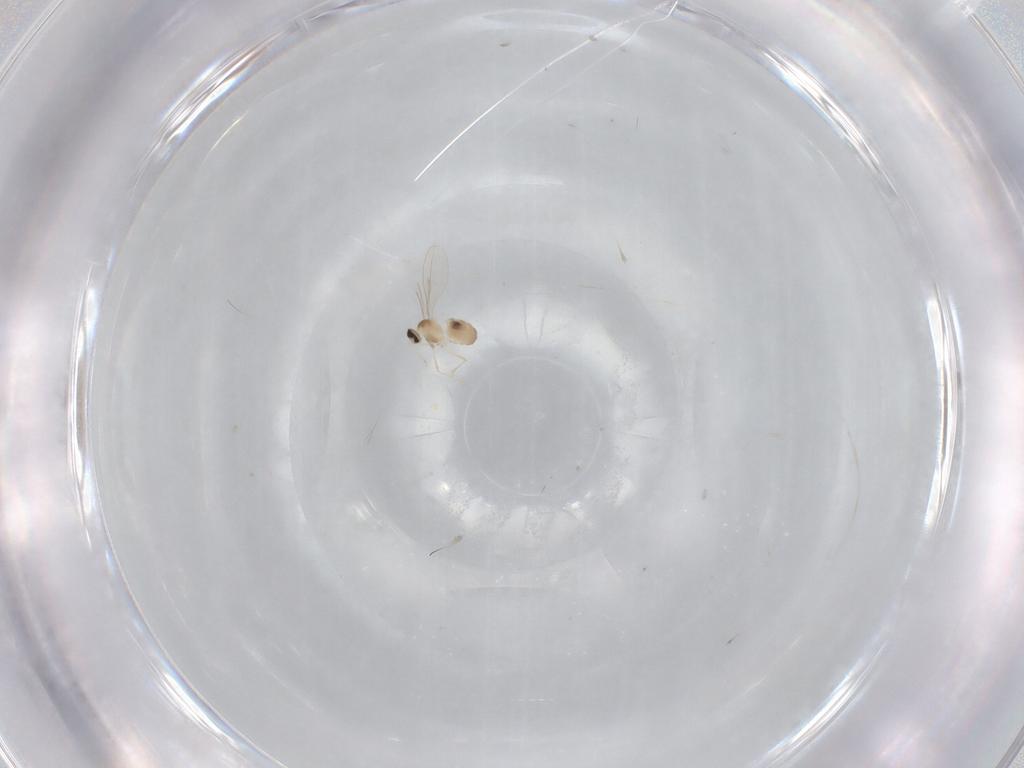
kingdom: Animalia
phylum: Arthropoda
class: Insecta
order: Diptera
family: Cecidomyiidae
